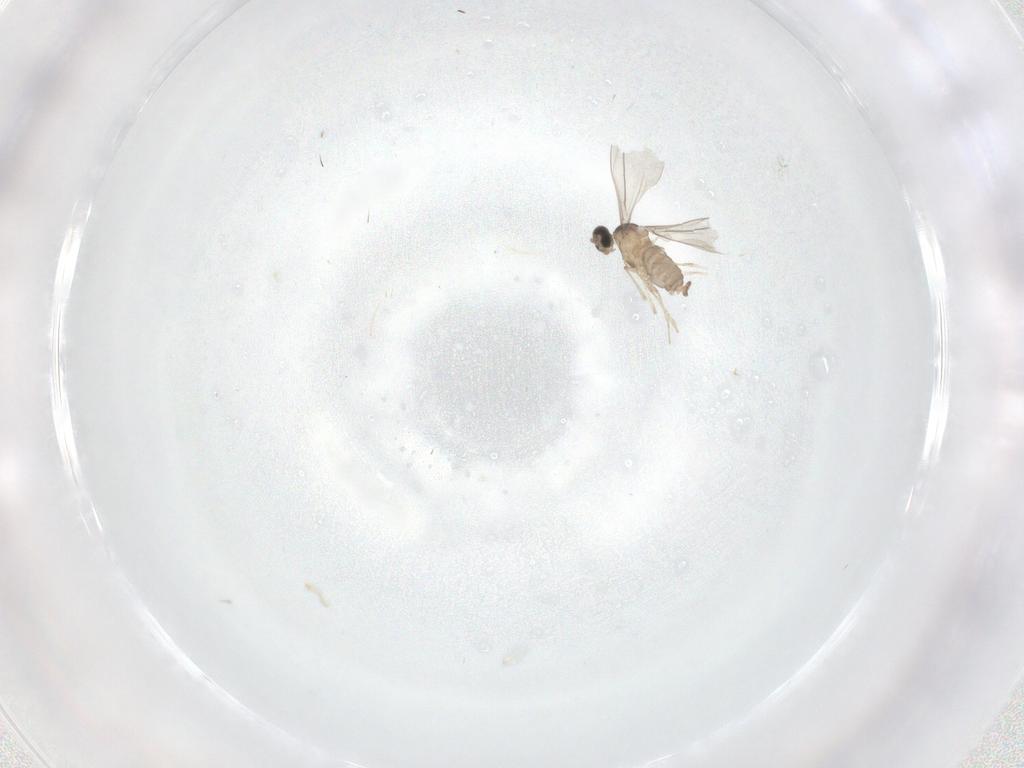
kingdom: Animalia
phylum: Arthropoda
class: Insecta
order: Diptera
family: Cecidomyiidae
